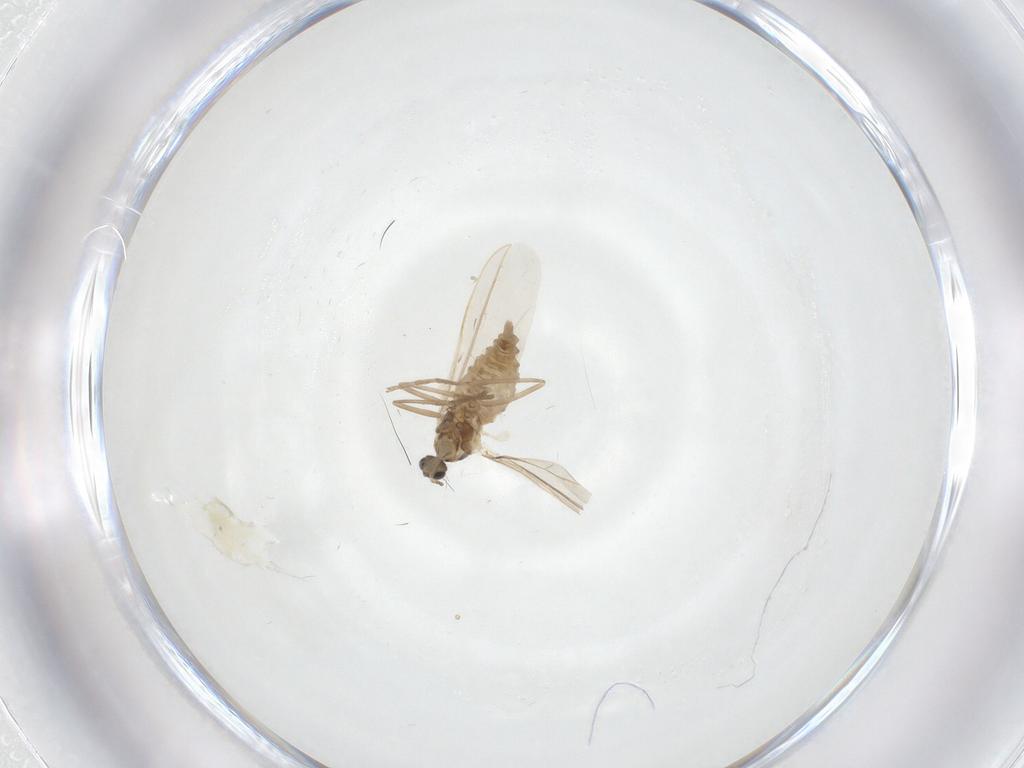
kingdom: Animalia
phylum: Arthropoda
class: Insecta
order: Diptera
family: Cecidomyiidae
